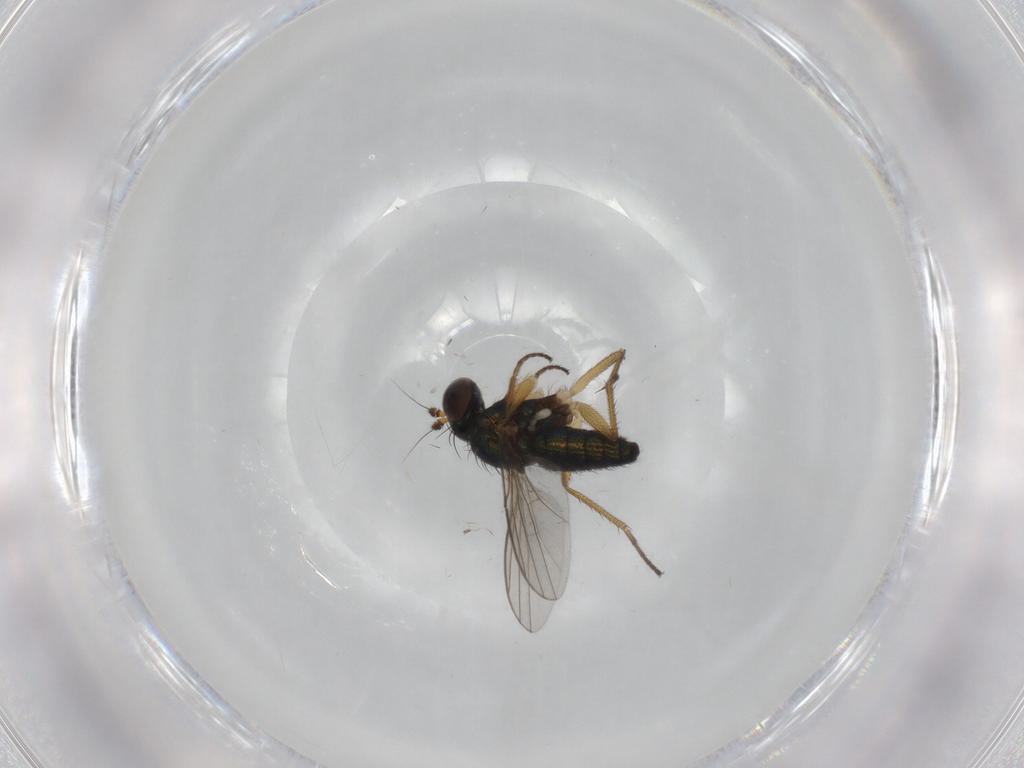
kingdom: Animalia
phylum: Arthropoda
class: Insecta
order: Diptera
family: Dolichopodidae
